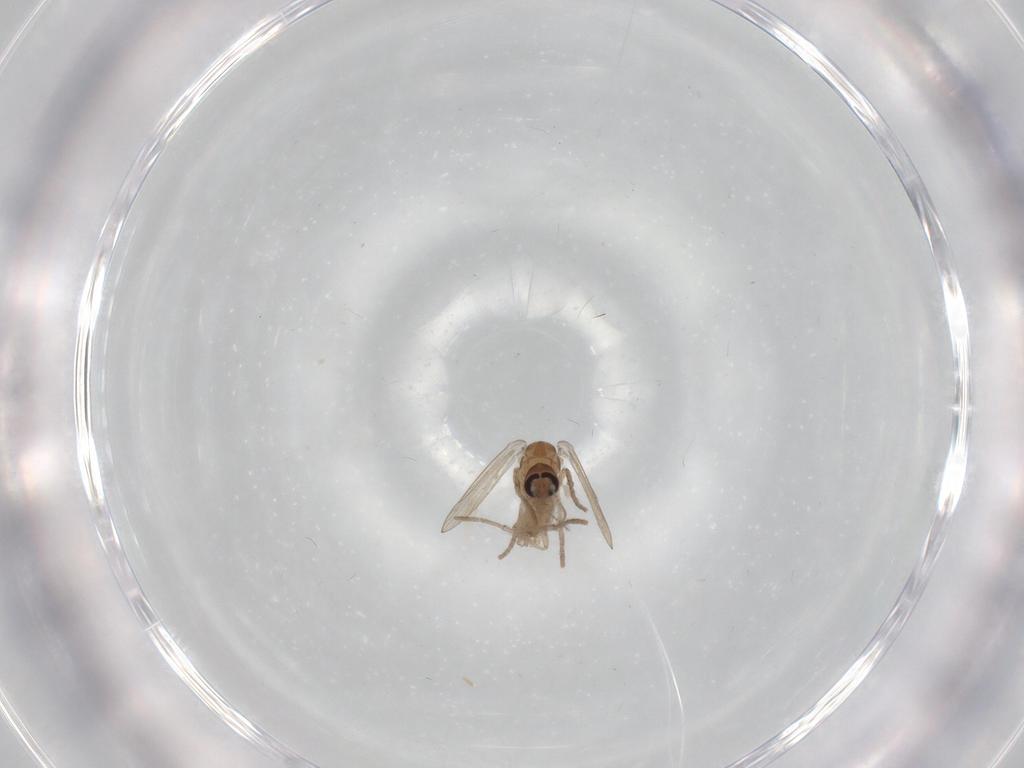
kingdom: Animalia
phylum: Arthropoda
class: Insecta
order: Diptera
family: Psychodidae
